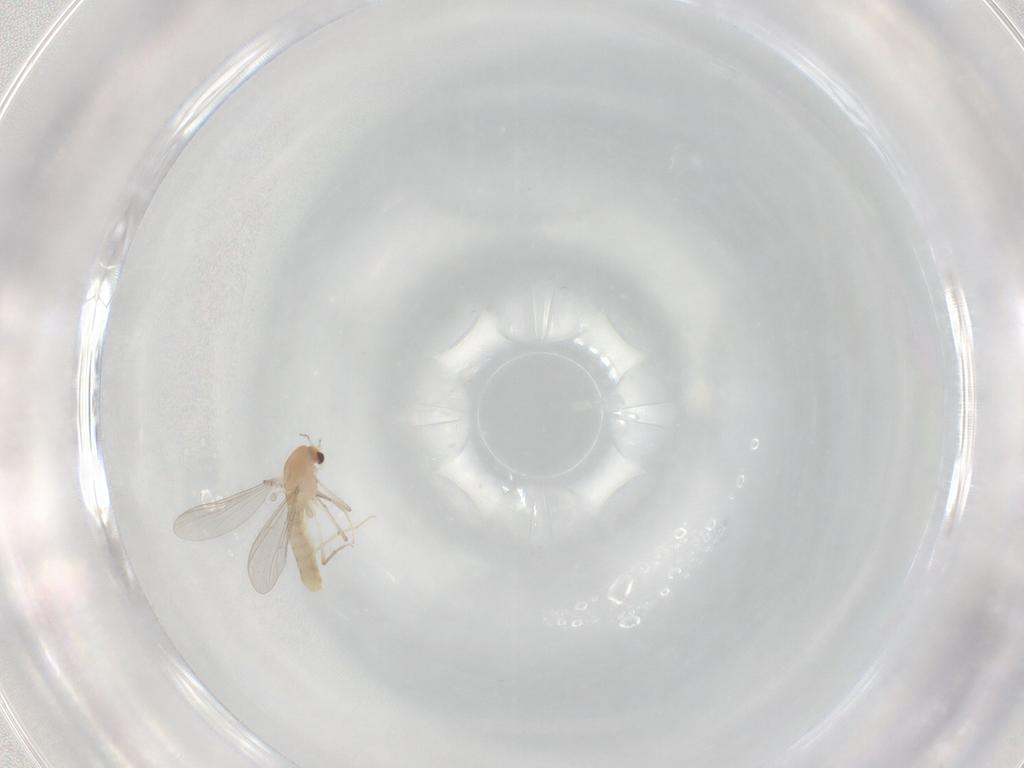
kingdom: Animalia
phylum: Arthropoda
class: Insecta
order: Diptera
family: Chironomidae
